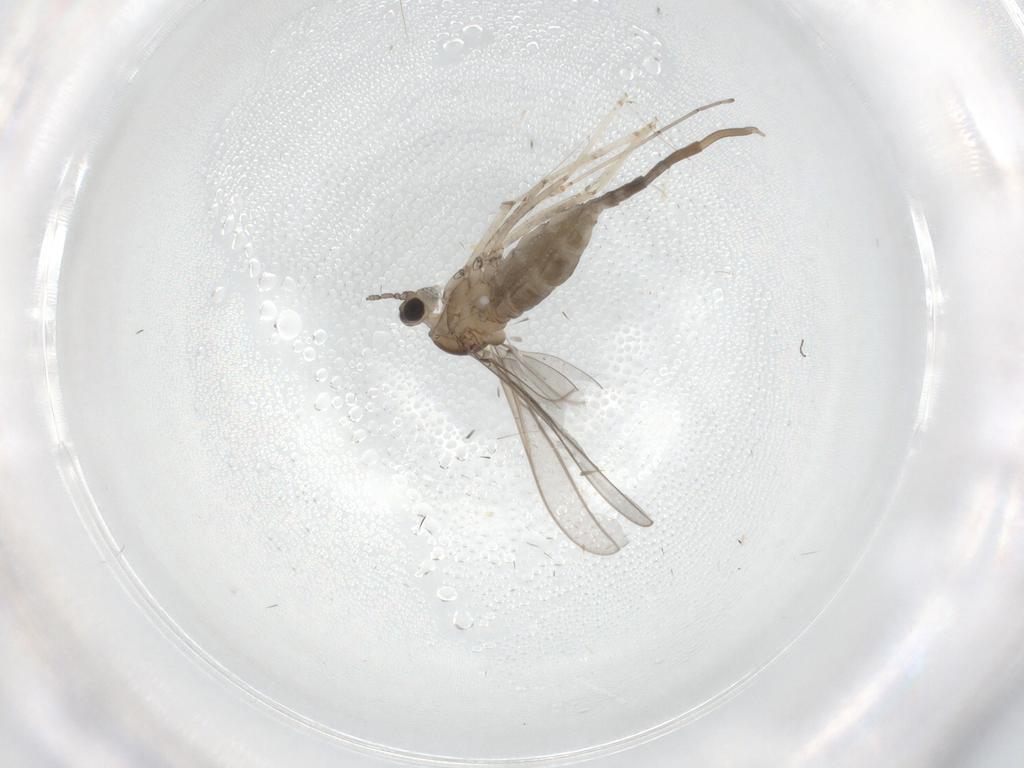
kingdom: Animalia
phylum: Arthropoda
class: Insecta
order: Diptera
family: Cecidomyiidae
